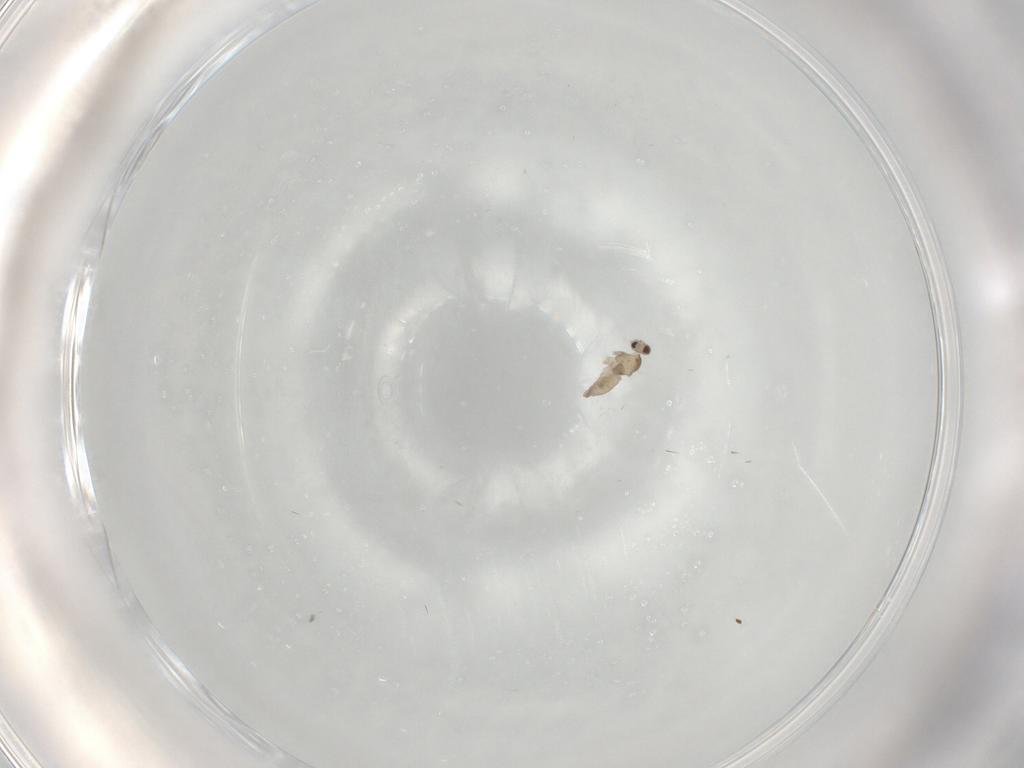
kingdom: Animalia
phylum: Arthropoda
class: Insecta
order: Diptera
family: Cecidomyiidae
